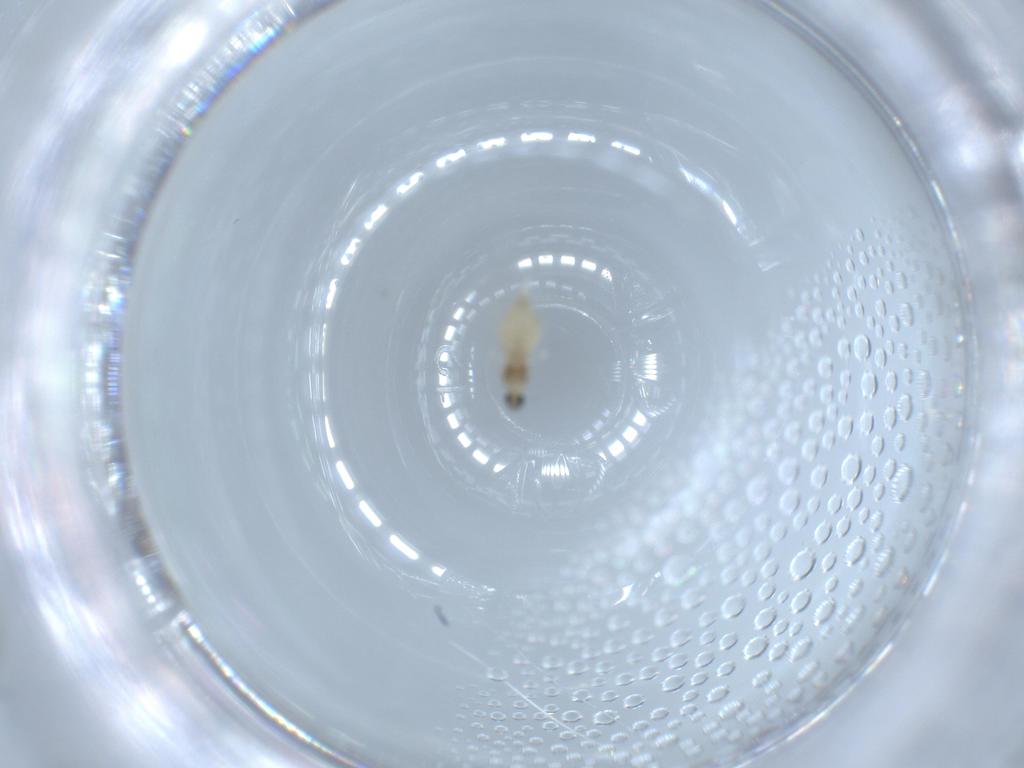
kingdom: Animalia
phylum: Arthropoda
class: Insecta
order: Diptera
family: Cecidomyiidae
